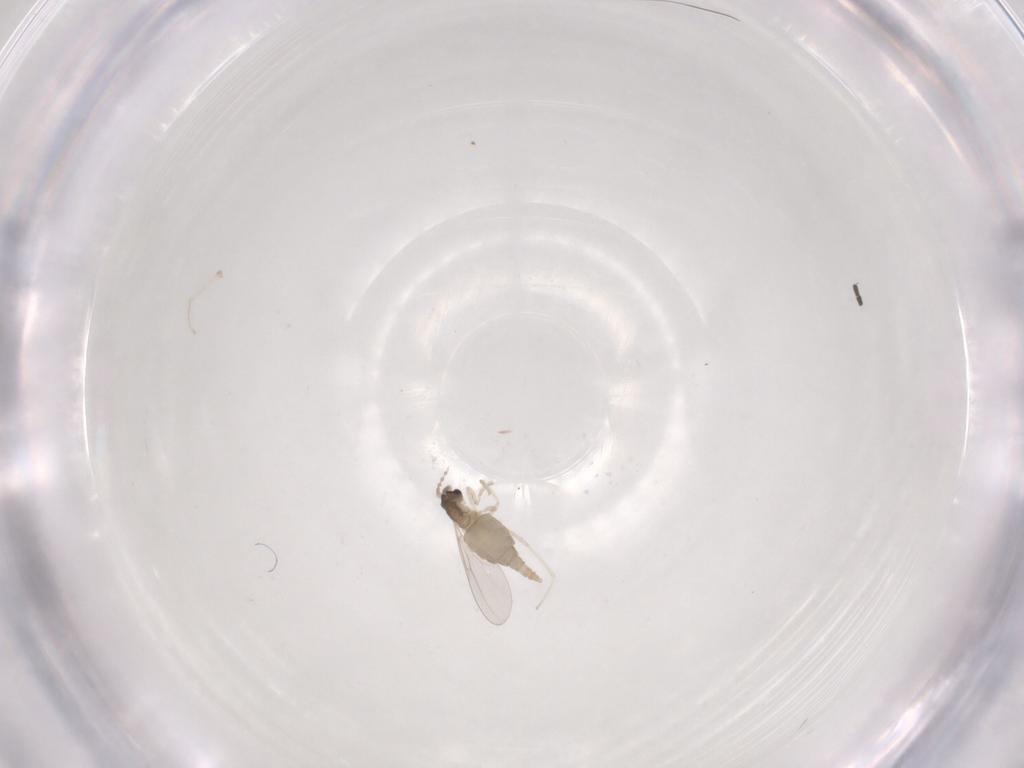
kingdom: Animalia
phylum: Arthropoda
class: Insecta
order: Diptera
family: Cecidomyiidae
